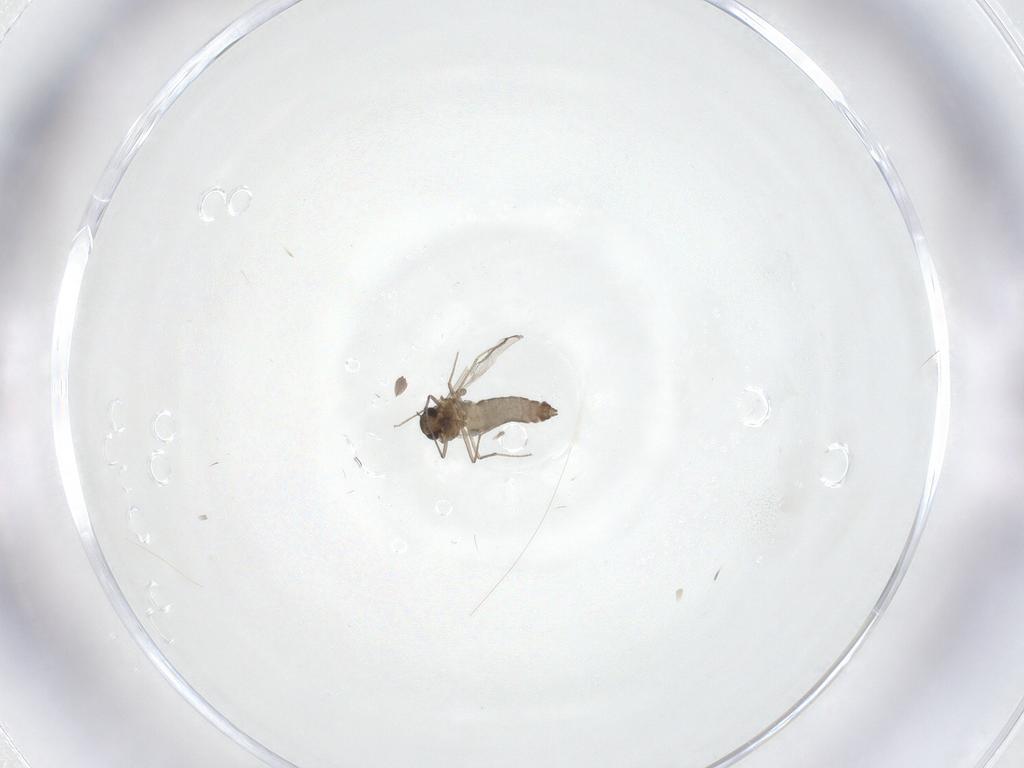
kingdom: Animalia
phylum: Arthropoda
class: Insecta
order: Diptera
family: Chironomidae
